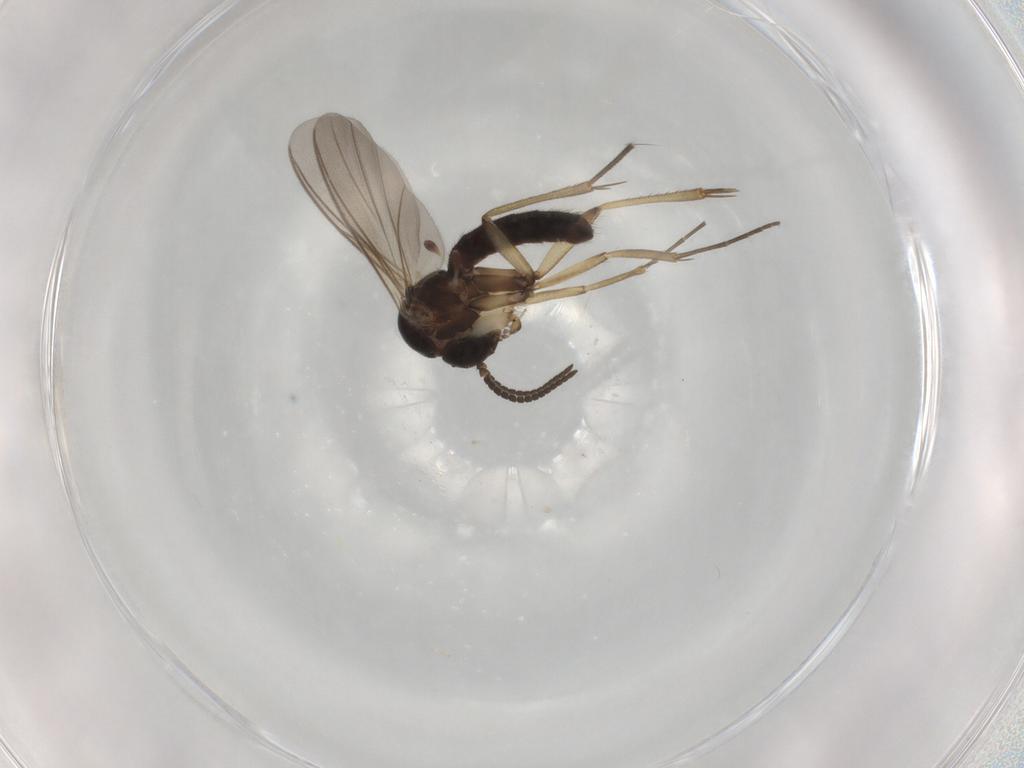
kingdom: Animalia
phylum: Arthropoda
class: Insecta
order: Diptera
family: Mycetophilidae
